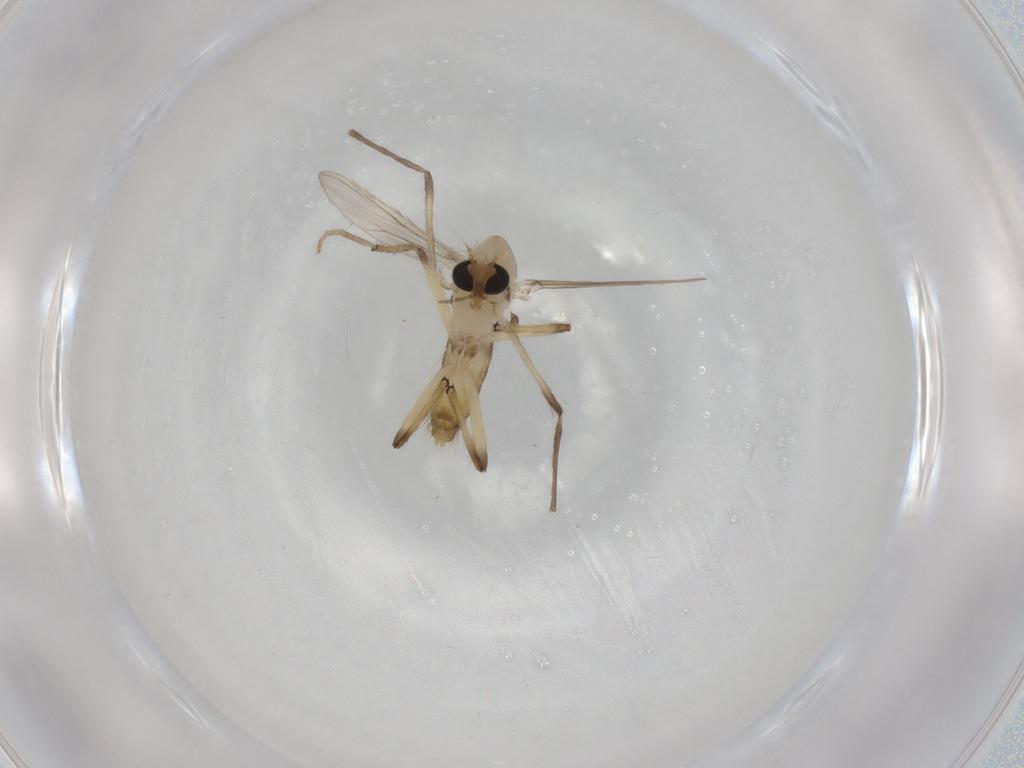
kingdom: Animalia
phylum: Arthropoda
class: Insecta
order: Diptera
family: Chironomidae
